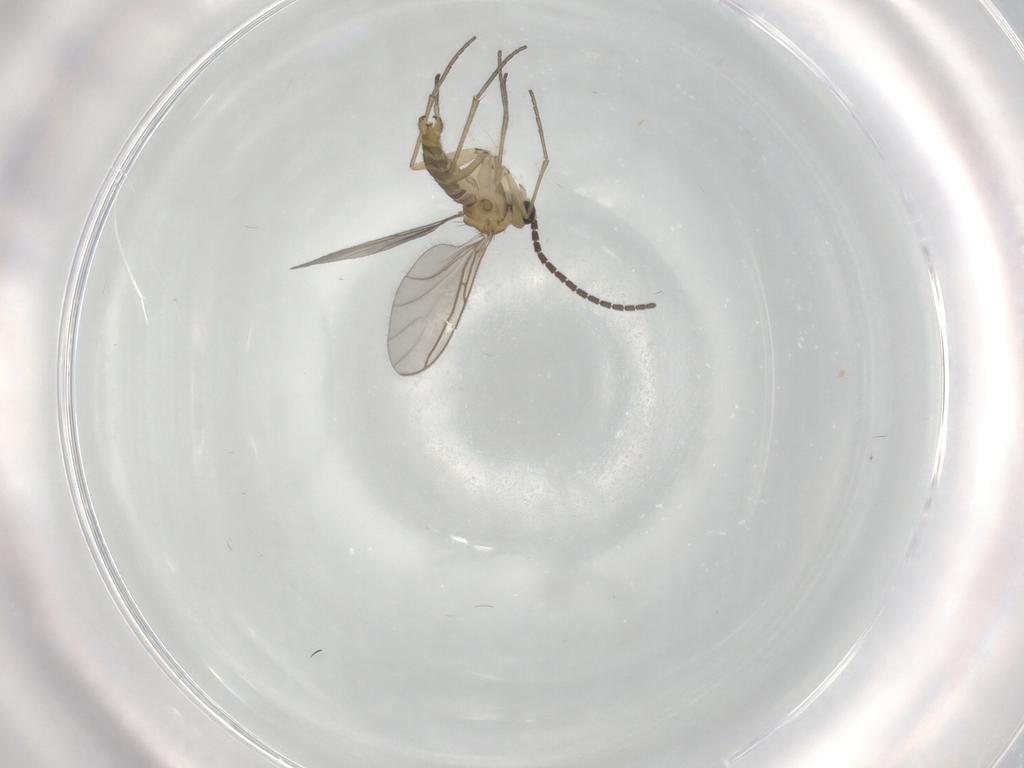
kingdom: Animalia
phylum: Arthropoda
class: Insecta
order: Diptera
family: Sciaridae
